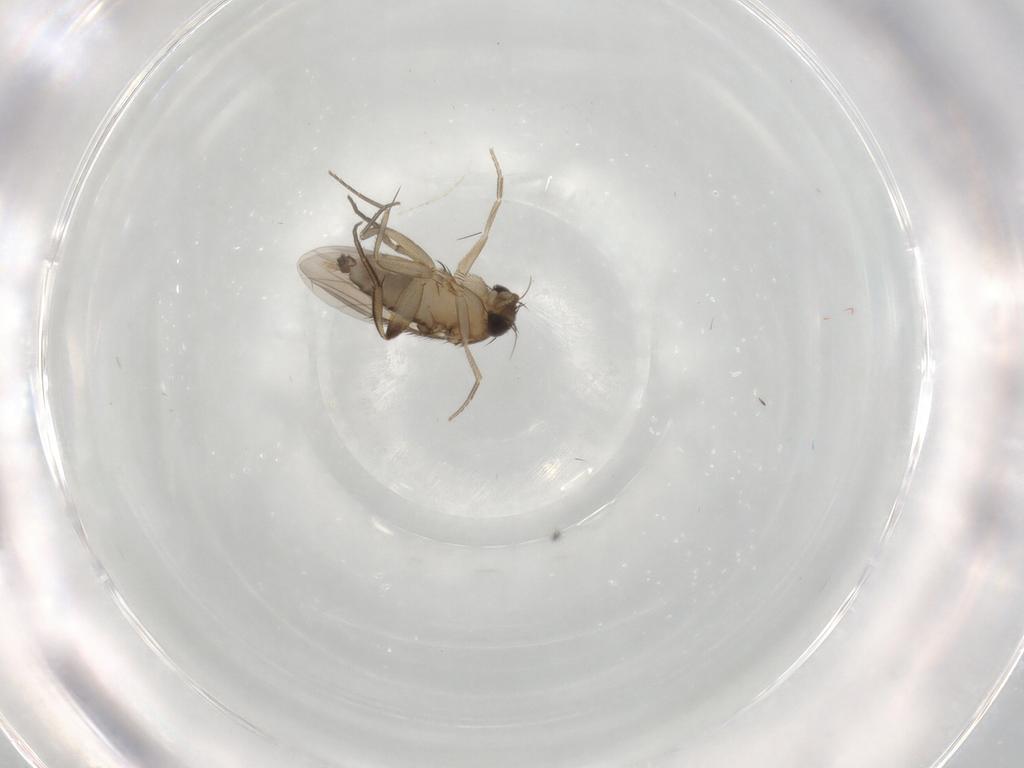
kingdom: Animalia
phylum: Arthropoda
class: Insecta
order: Diptera
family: Phoridae
